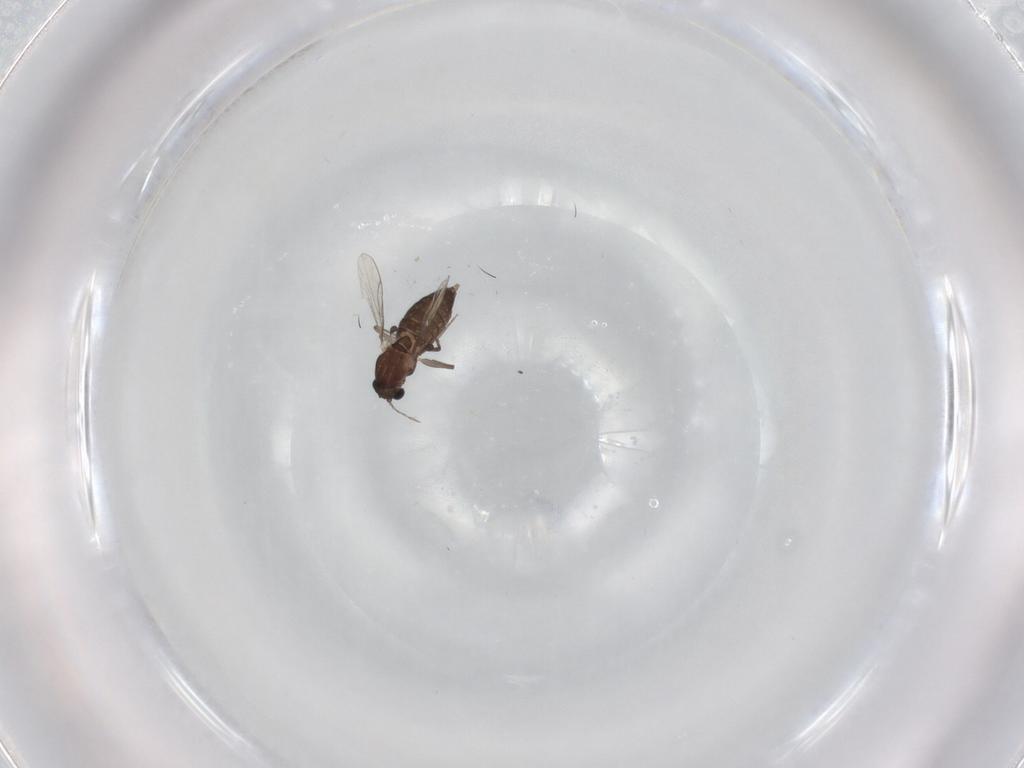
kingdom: Animalia
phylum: Arthropoda
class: Insecta
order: Diptera
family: Chironomidae
